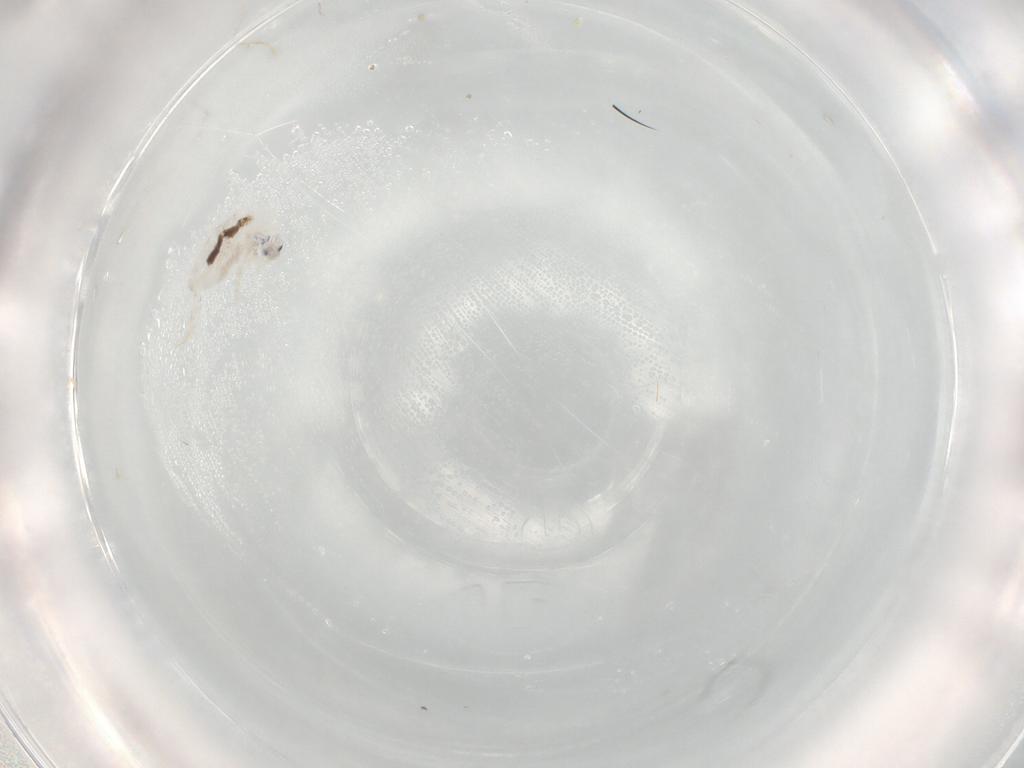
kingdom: Animalia
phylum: Arthropoda
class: Collembola
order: Entomobryomorpha
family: Entomobryidae
